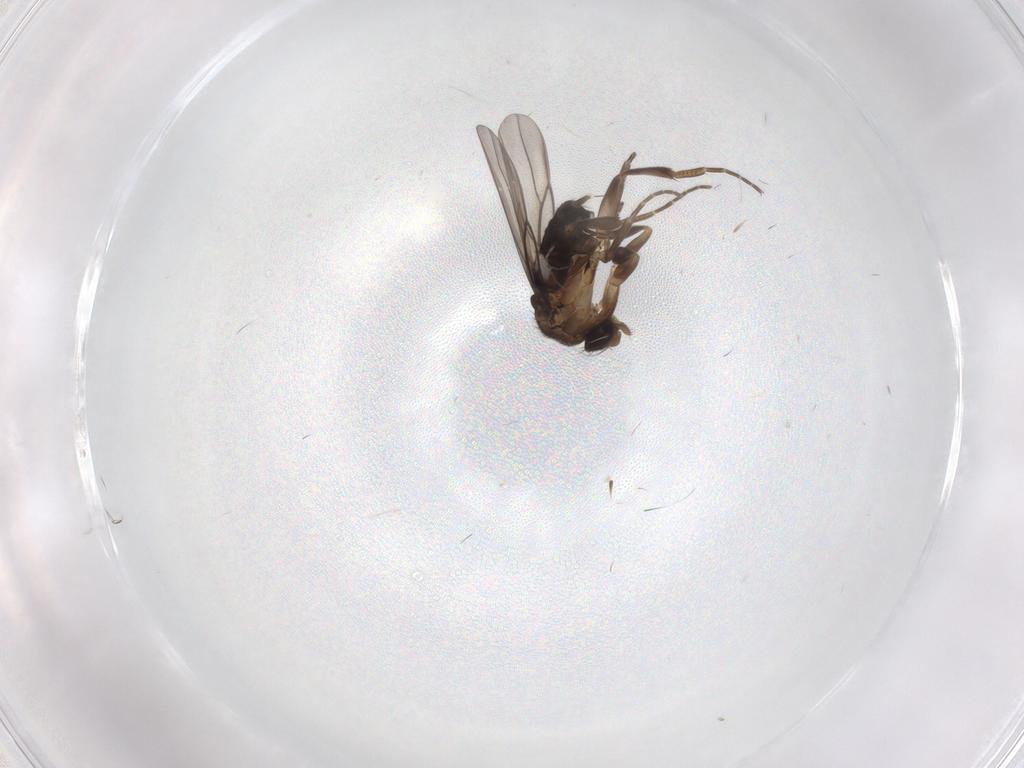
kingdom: Animalia
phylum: Arthropoda
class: Insecta
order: Diptera
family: Phoridae
